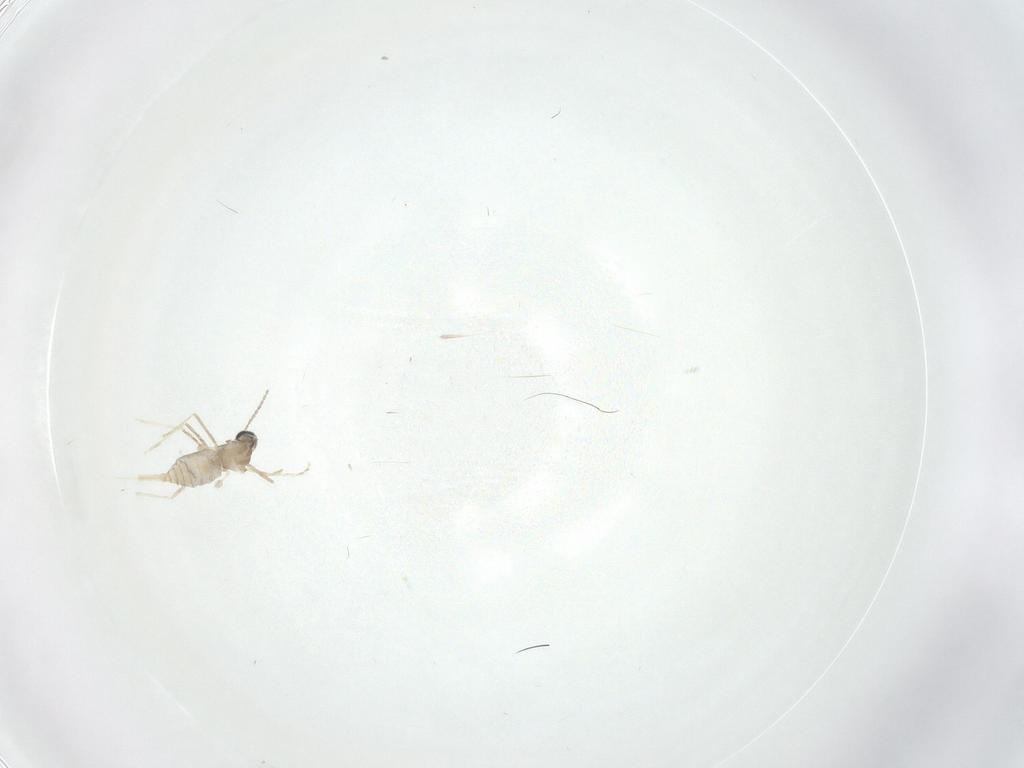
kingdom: Animalia
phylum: Arthropoda
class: Insecta
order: Diptera
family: Cecidomyiidae
